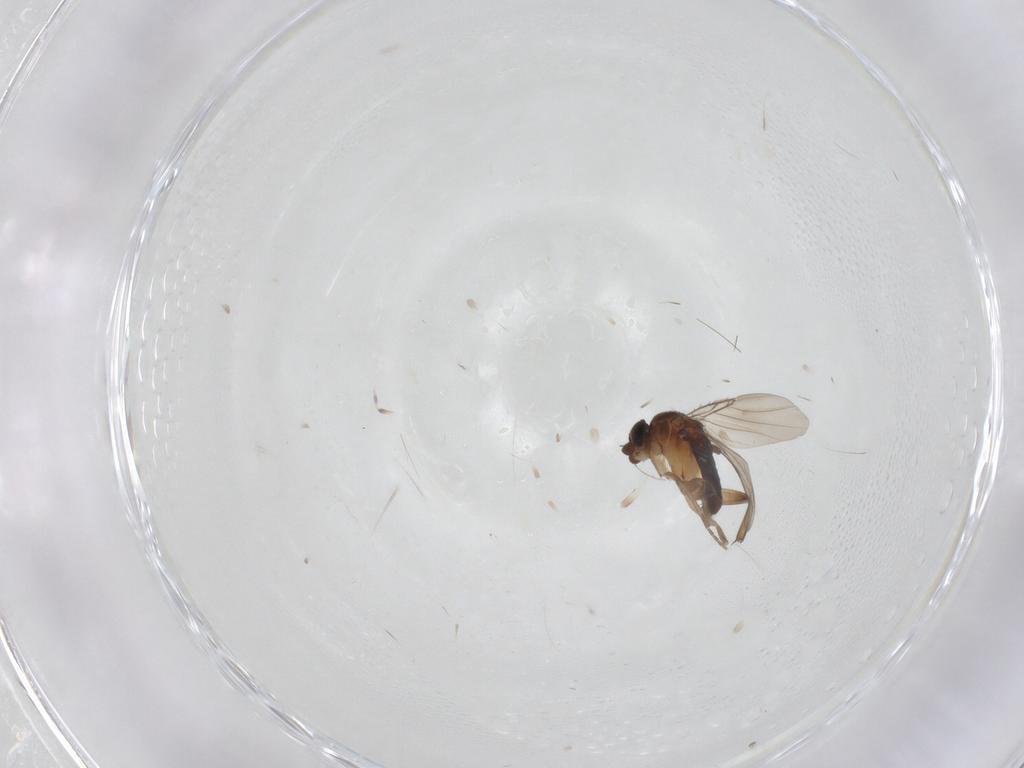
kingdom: Animalia
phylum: Arthropoda
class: Insecta
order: Diptera
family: Phoridae
